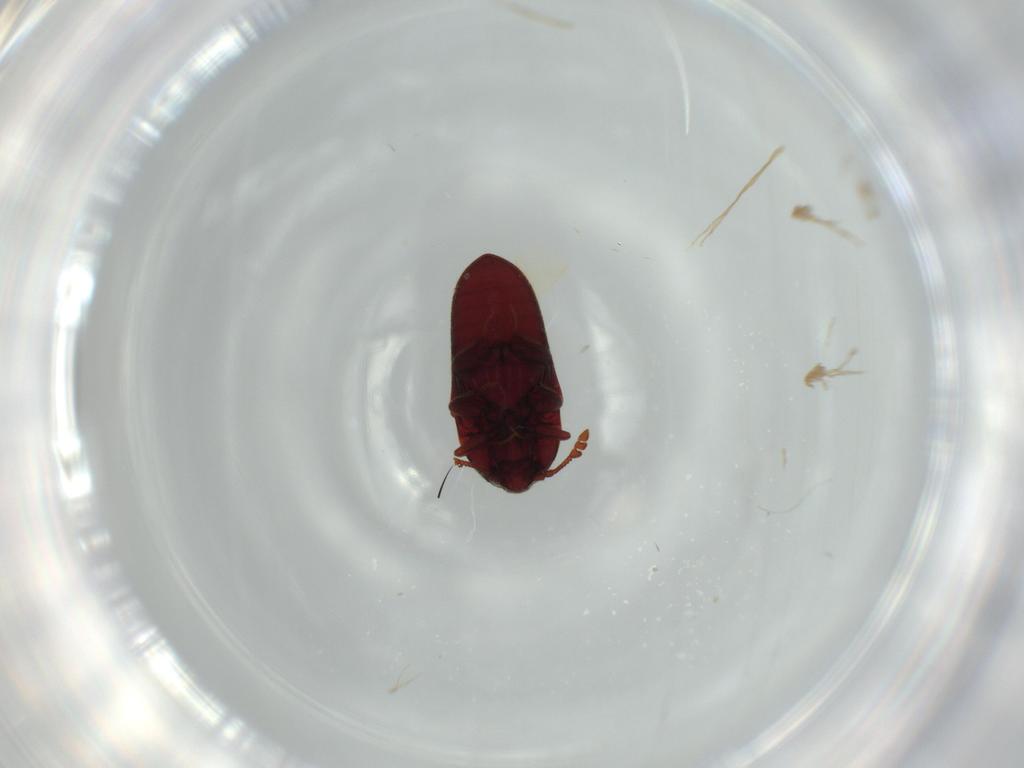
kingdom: Animalia
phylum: Arthropoda
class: Insecta
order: Coleoptera
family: Throscidae
